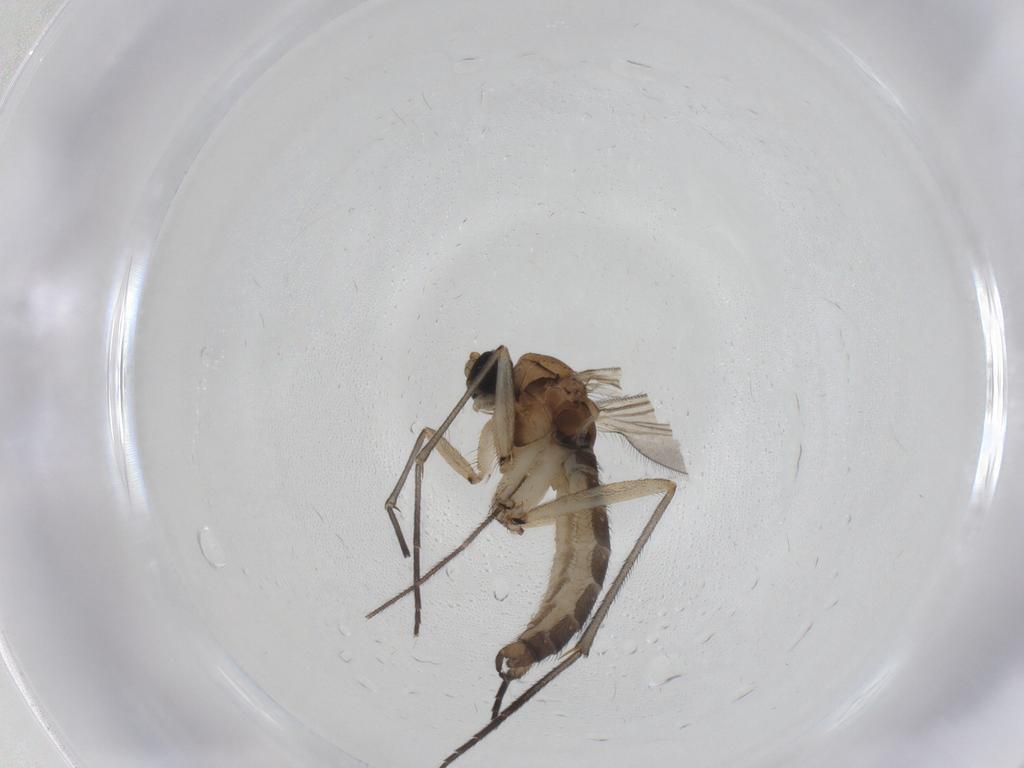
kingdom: Animalia
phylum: Arthropoda
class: Insecta
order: Diptera
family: Sciaridae
